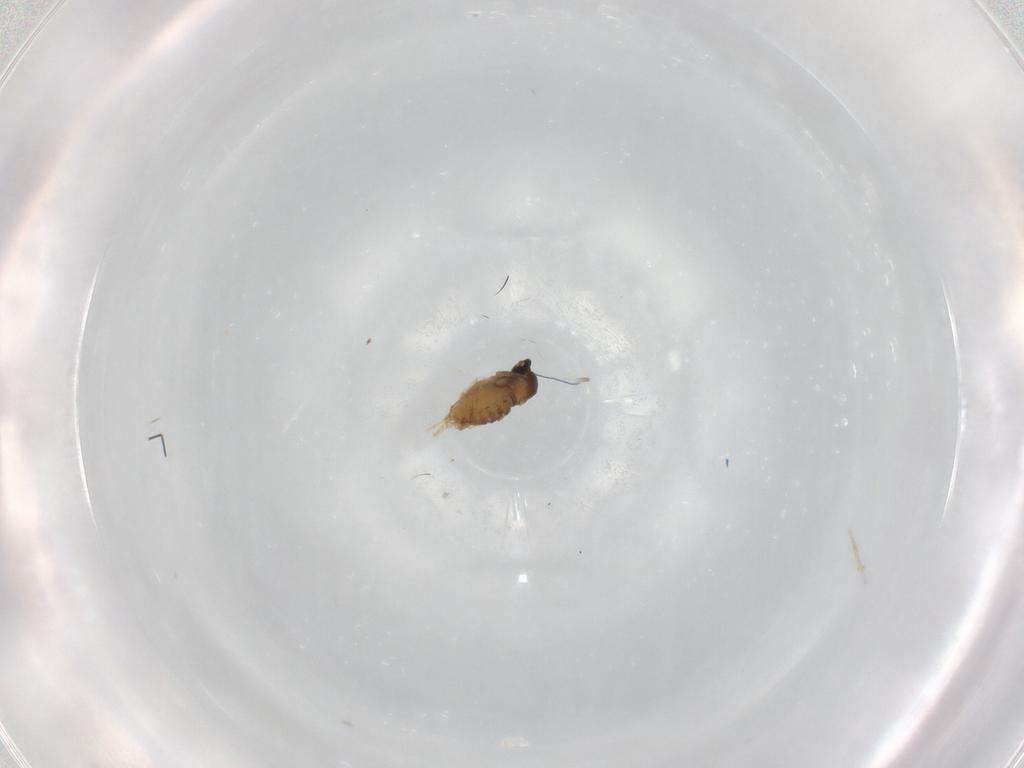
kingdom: Animalia
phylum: Arthropoda
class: Insecta
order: Diptera
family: Cecidomyiidae
